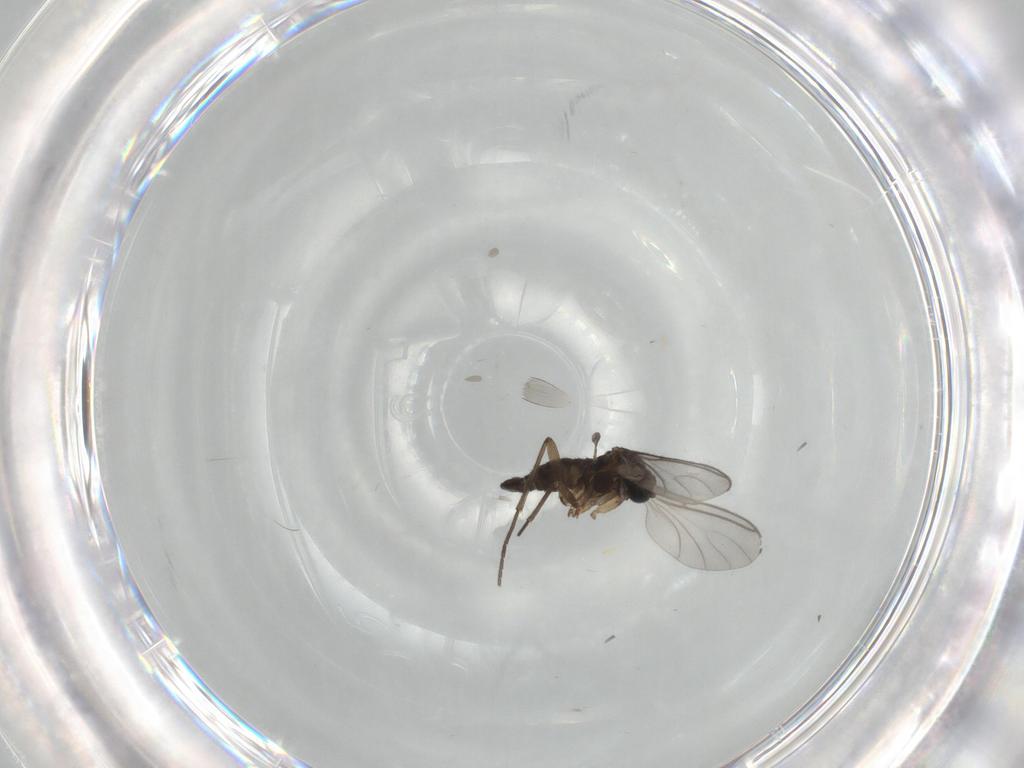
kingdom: Animalia
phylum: Arthropoda
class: Insecta
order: Diptera
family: Sciaridae
